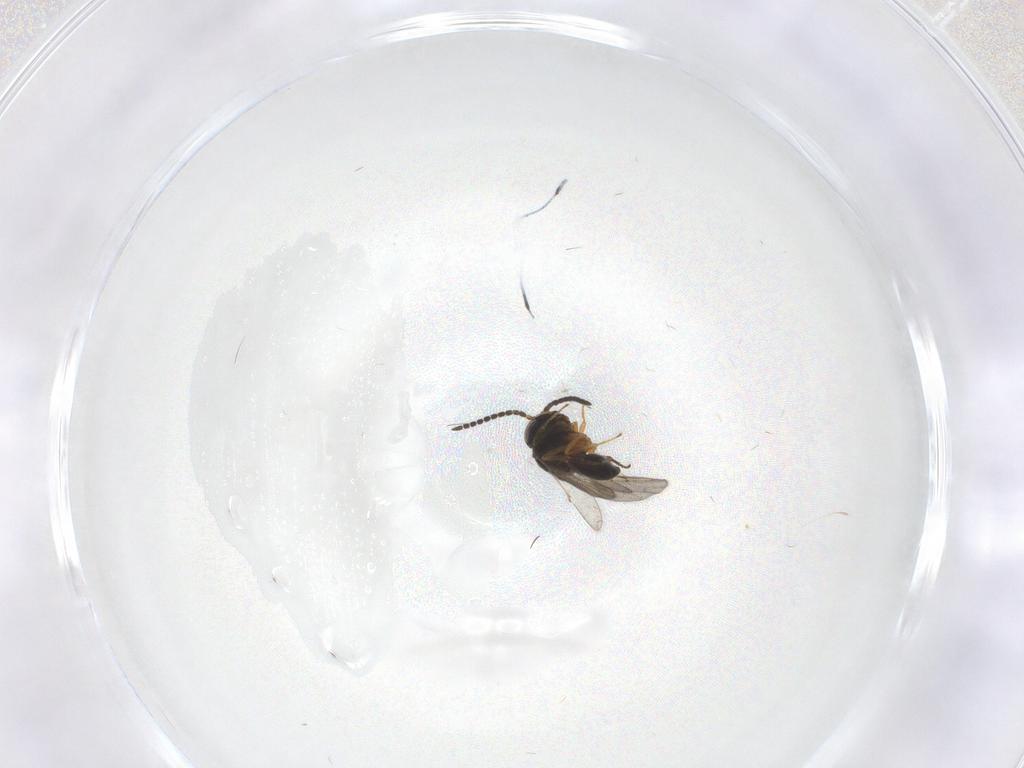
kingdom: Animalia
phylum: Arthropoda
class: Insecta
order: Hymenoptera
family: Scelionidae
